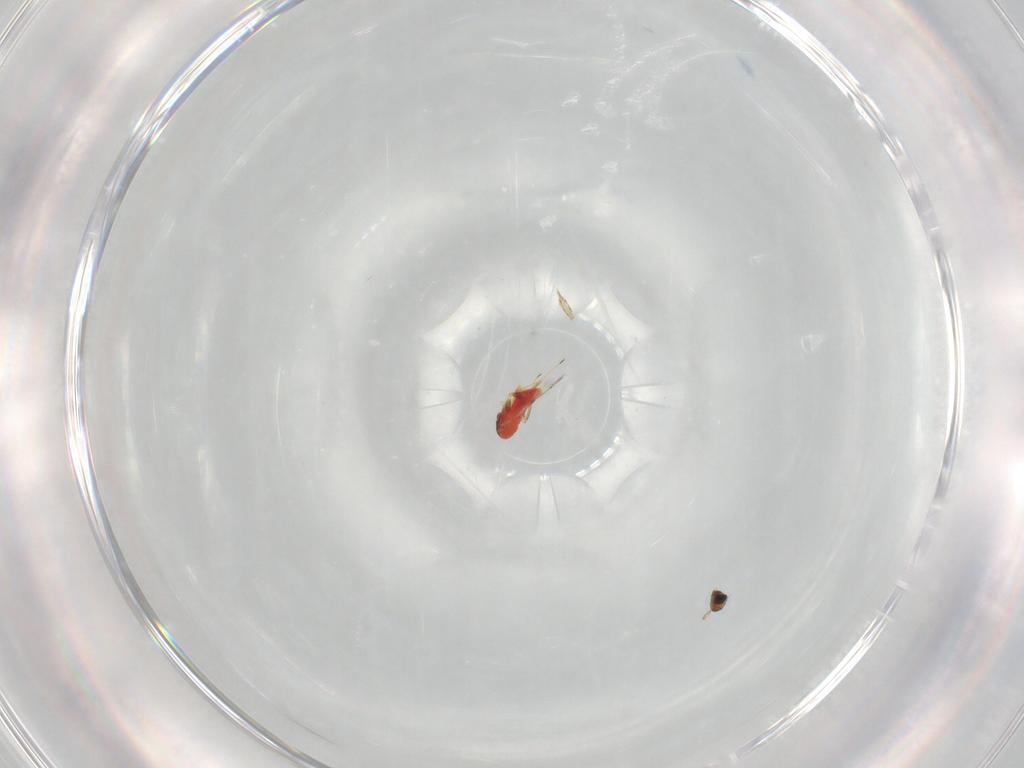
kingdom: Animalia
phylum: Arthropoda
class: Insecta
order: Hymenoptera
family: Trichogrammatidae
